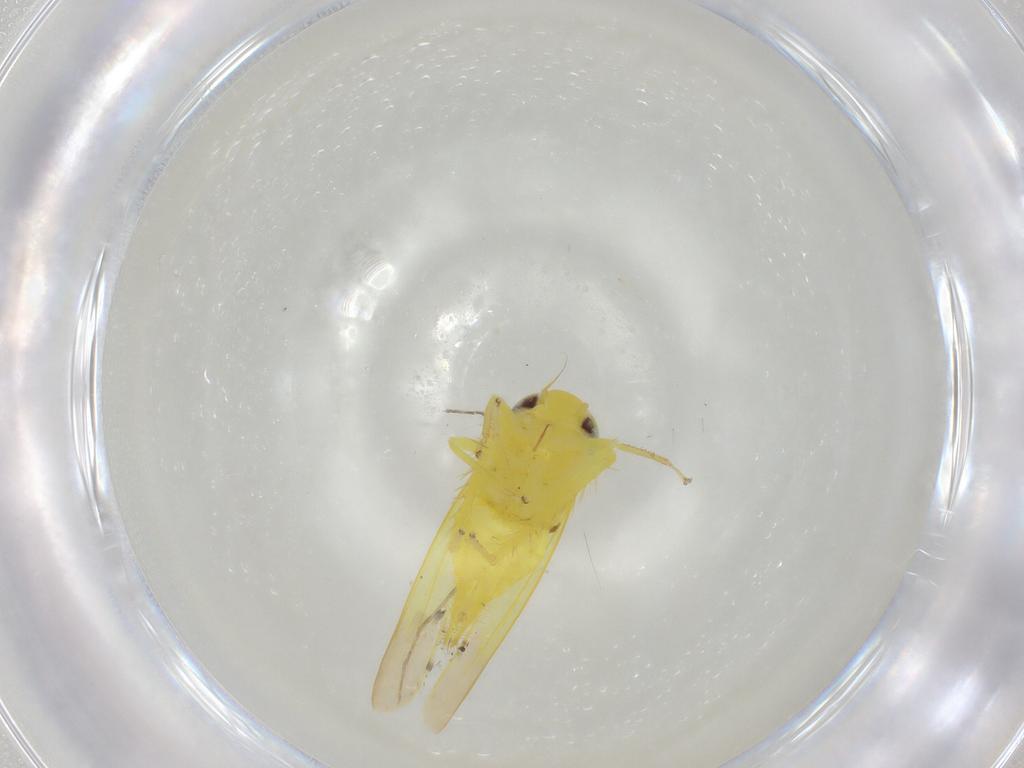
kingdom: Animalia
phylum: Arthropoda
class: Insecta
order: Hemiptera
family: Cicadellidae
